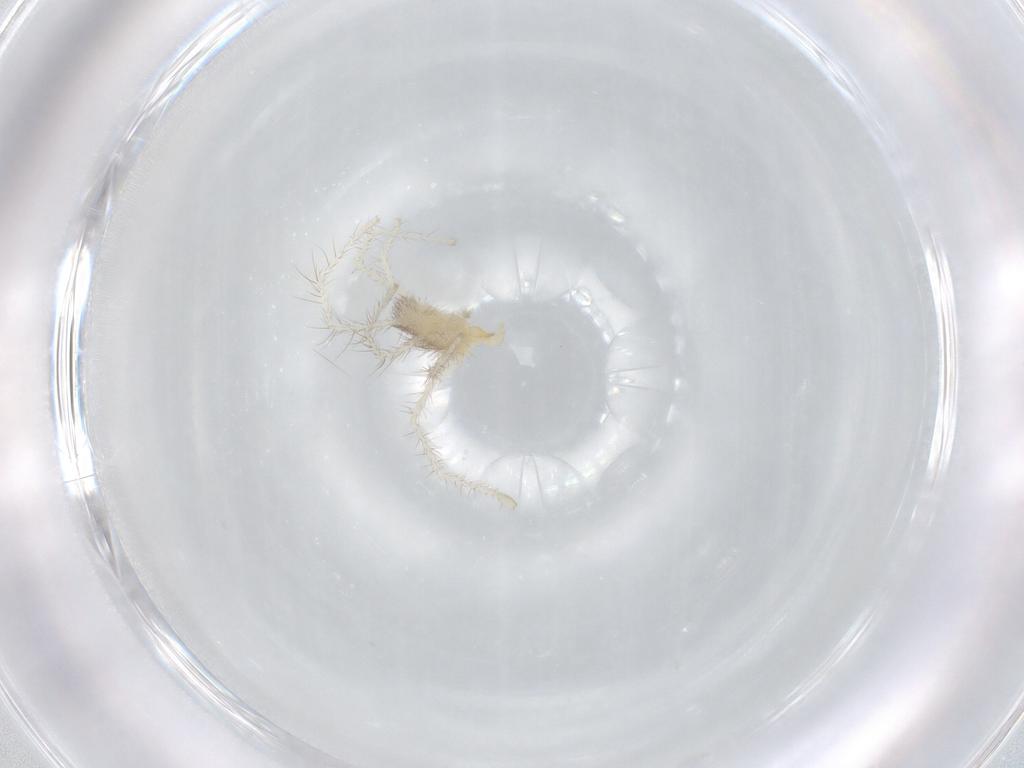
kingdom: Animalia
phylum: Arthropoda
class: Arachnida
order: Trombidiformes
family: Erythraeidae
